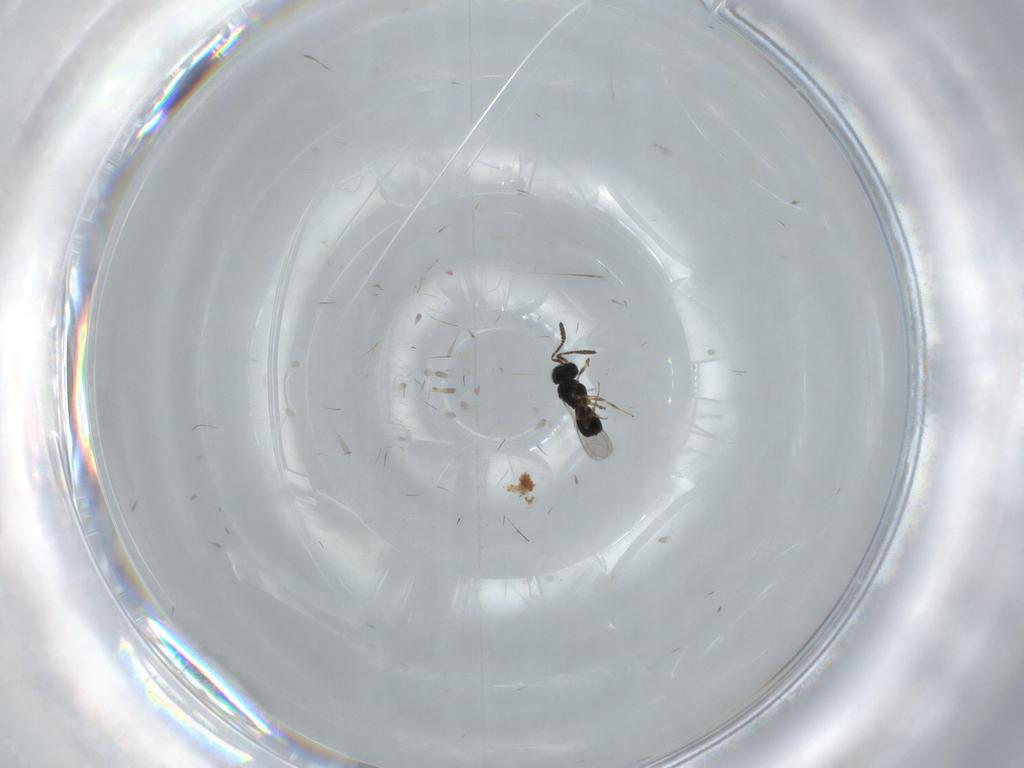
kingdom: Animalia
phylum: Arthropoda
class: Insecta
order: Hymenoptera
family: Scelionidae
